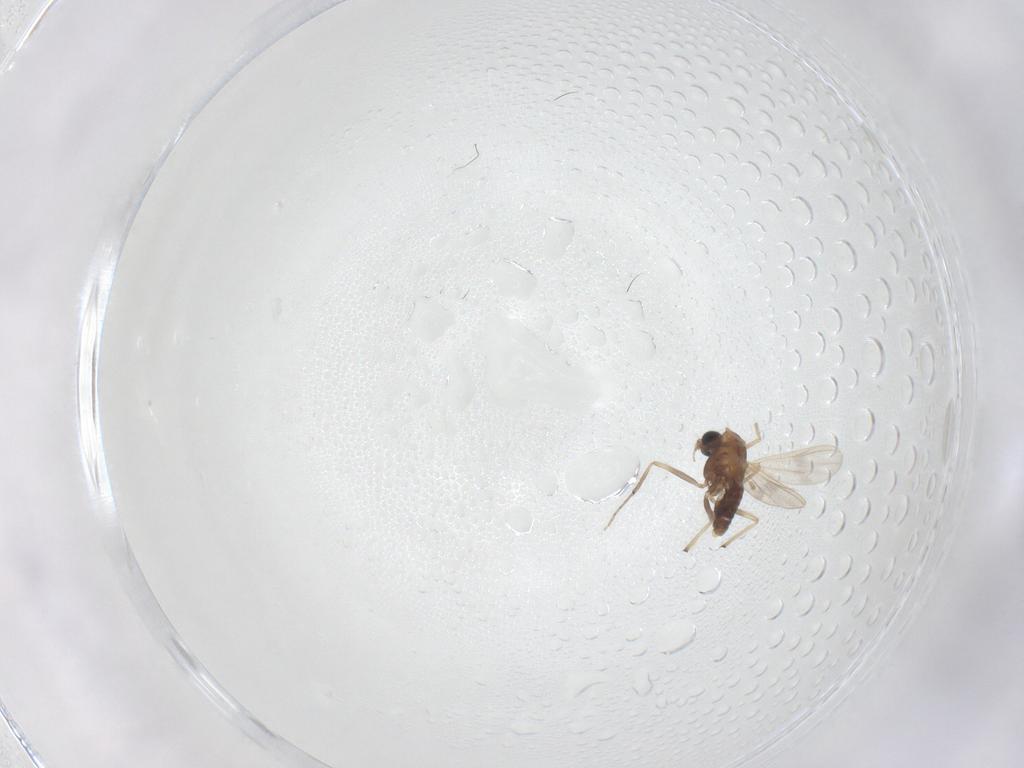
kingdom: Animalia
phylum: Arthropoda
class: Insecta
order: Diptera
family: Chironomidae
